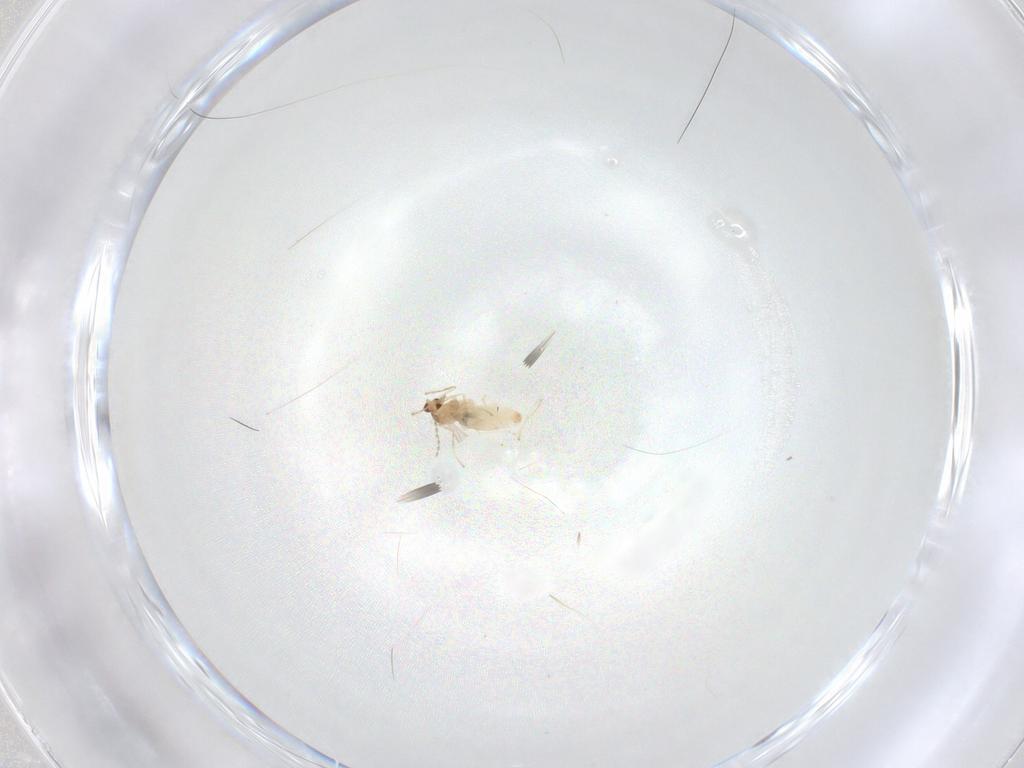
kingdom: Animalia
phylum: Arthropoda
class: Insecta
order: Diptera
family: Cecidomyiidae
